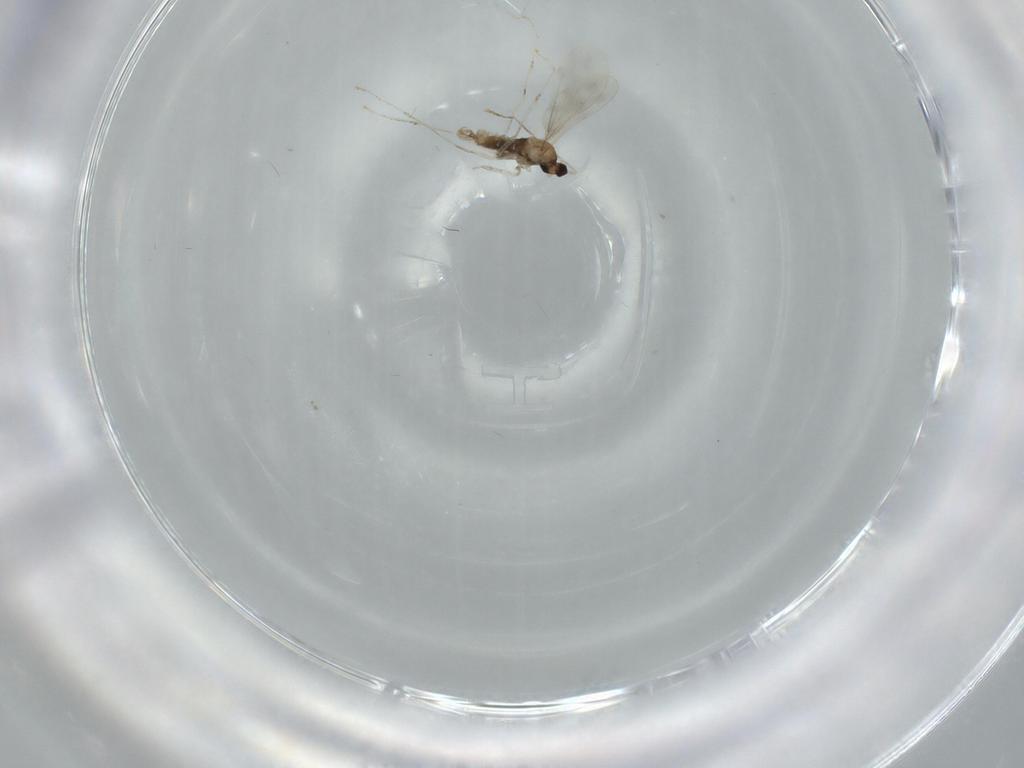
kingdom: Animalia
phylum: Arthropoda
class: Insecta
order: Diptera
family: Cecidomyiidae
